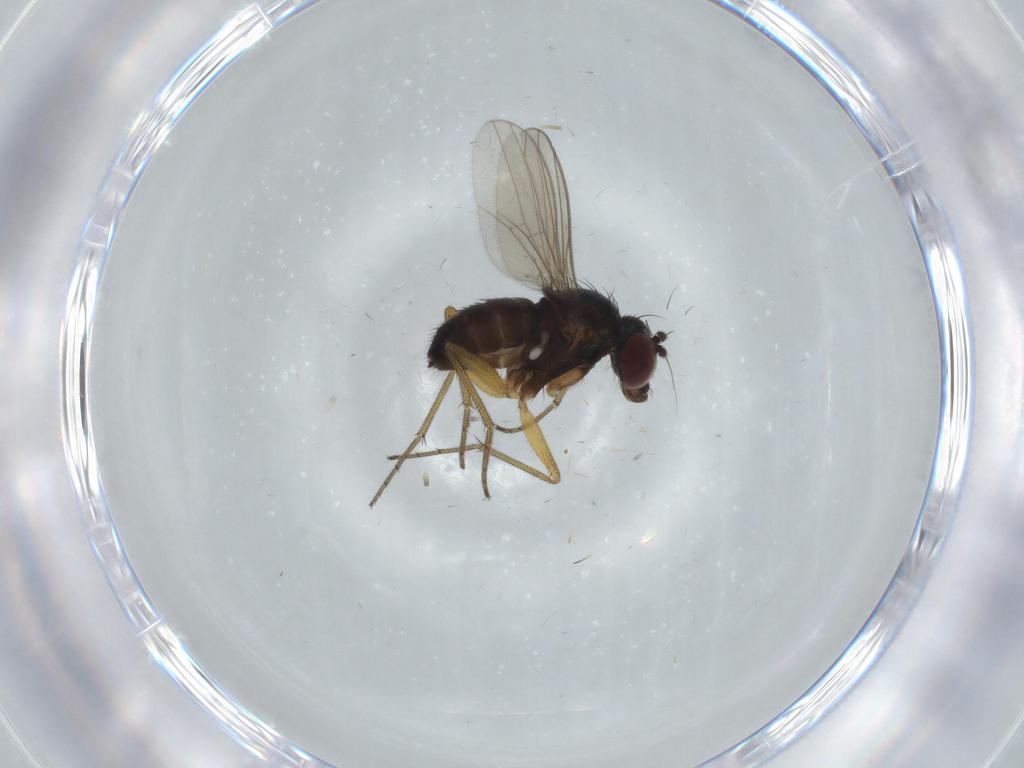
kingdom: Animalia
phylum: Arthropoda
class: Insecta
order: Diptera
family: Dolichopodidae
